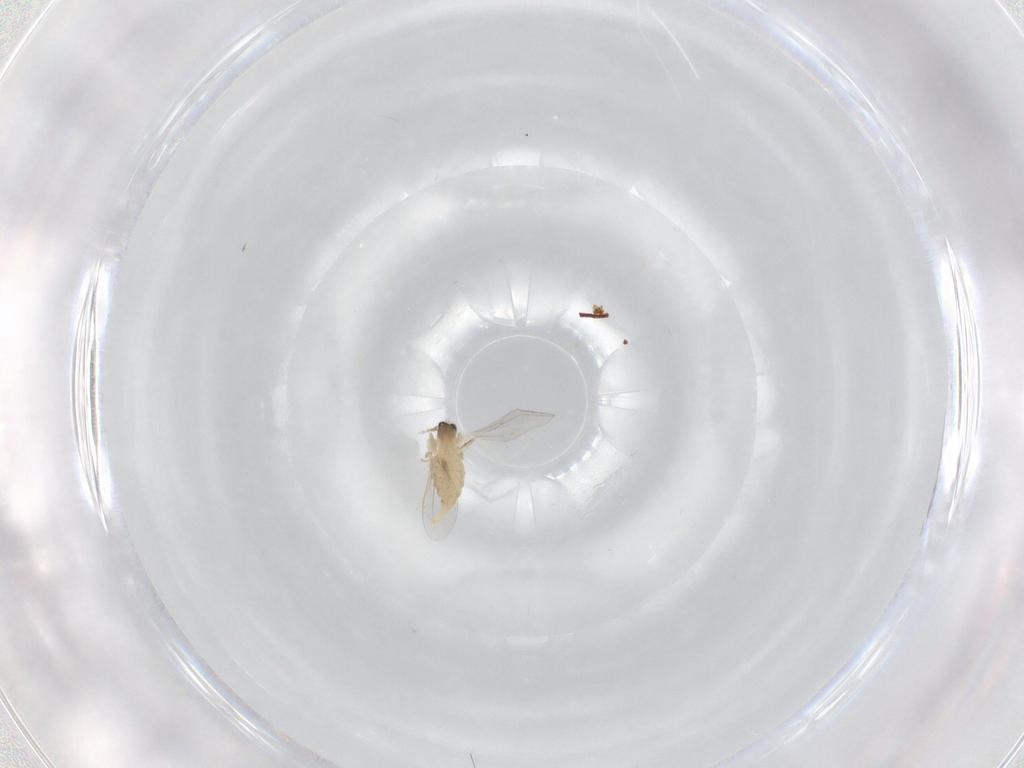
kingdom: Animalia
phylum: Arthropoda
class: Insecta
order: Diptera
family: Cecidomyiidae
